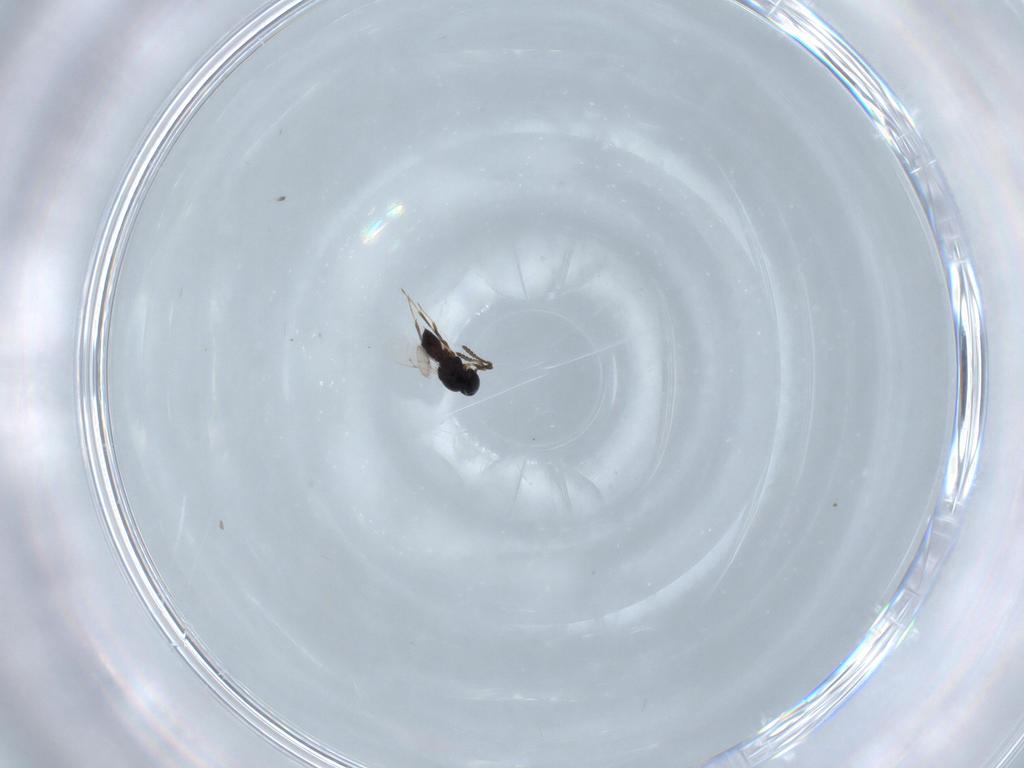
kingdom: Animalia
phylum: Arthropoda
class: Insecta
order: Hymenoptera
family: Scelionidae
